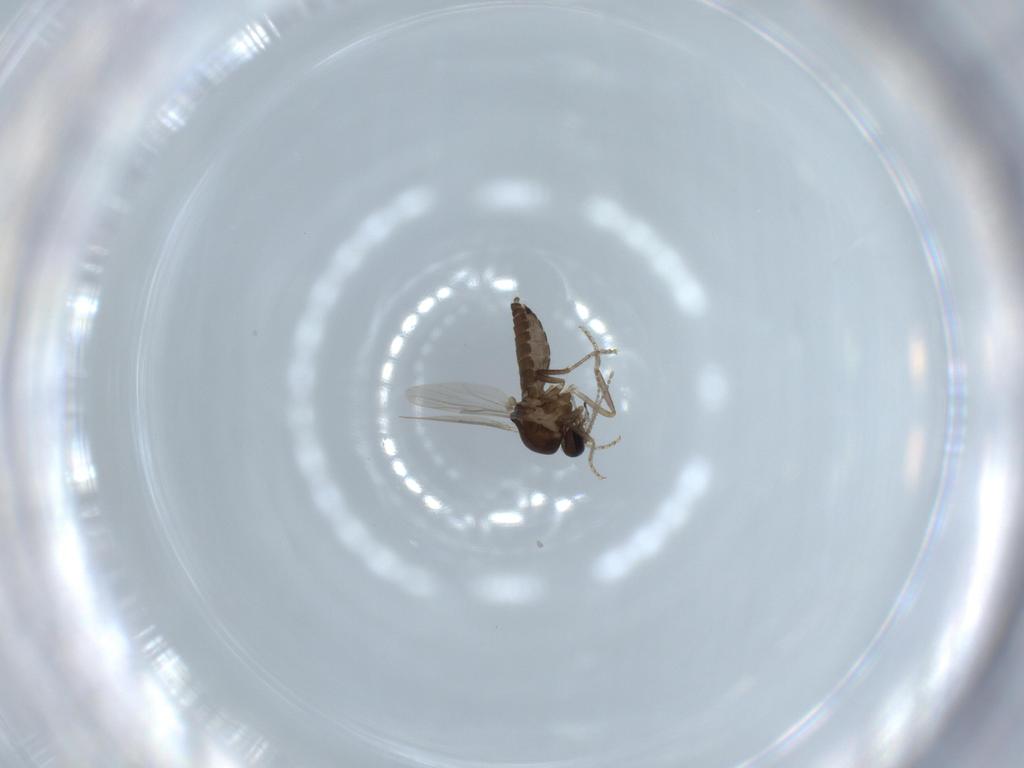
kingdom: Animalia
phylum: Arthropoda
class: Insecta
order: Diptera
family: Ceratopogonidae
